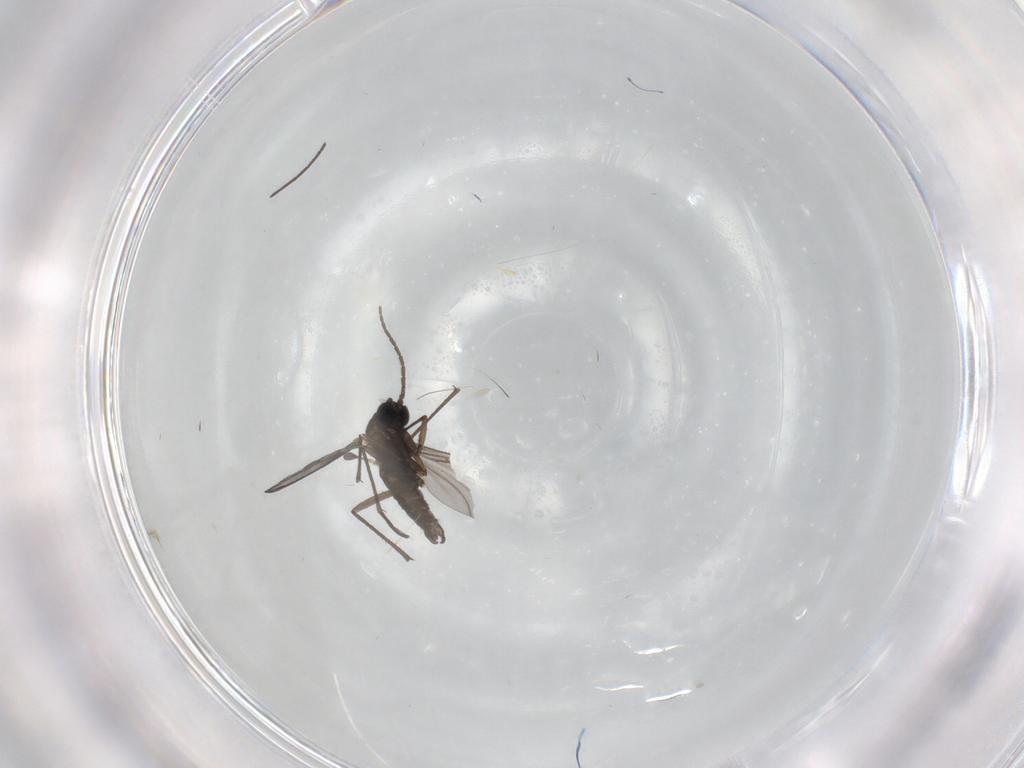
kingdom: Animalia
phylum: Arthropoda
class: Insecta
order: Diptera
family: Sciaridae
